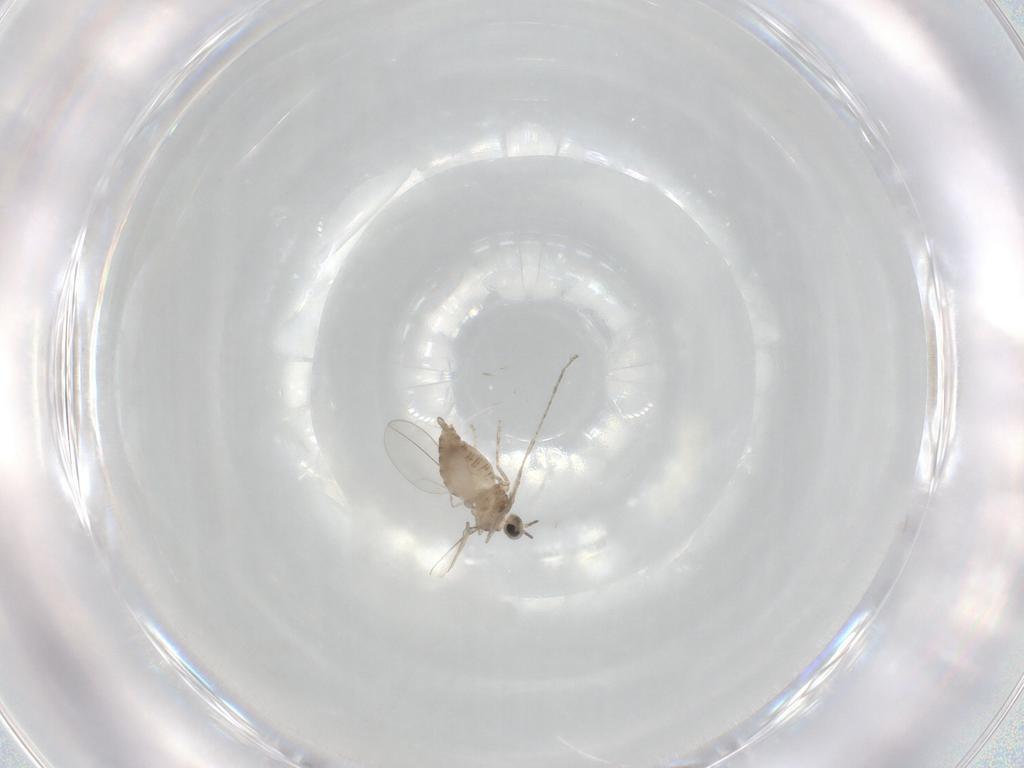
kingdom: Animalia
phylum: Arthropoda
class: Insecta
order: Diptera
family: Cecidomyiidae
